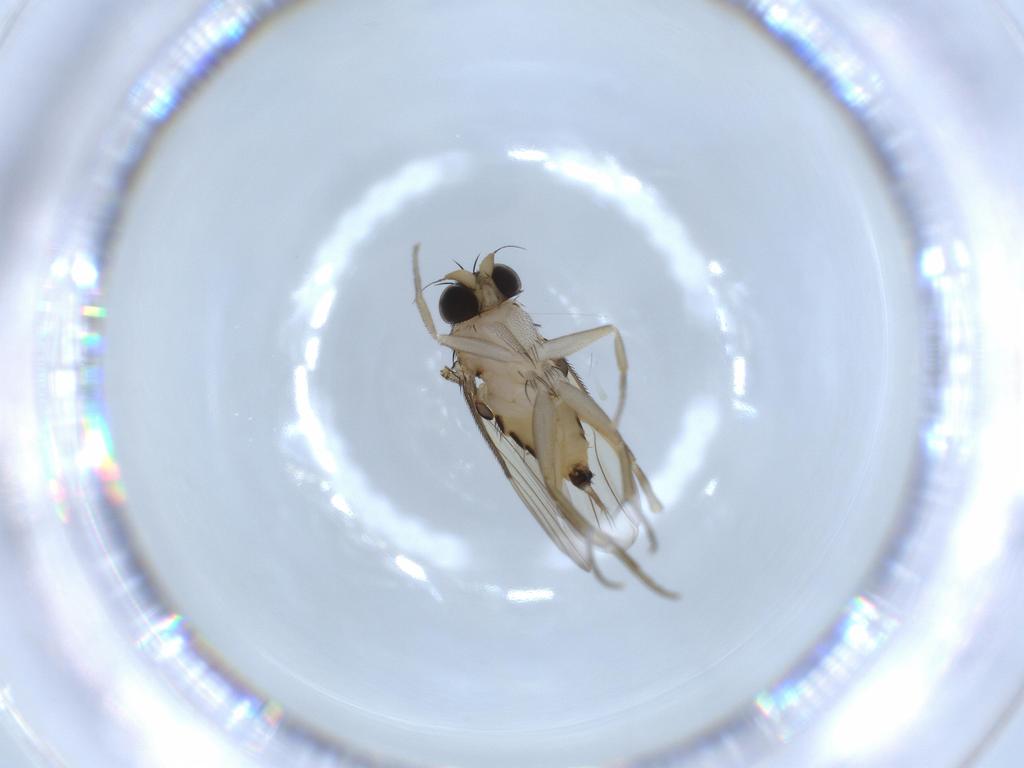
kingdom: Animalia
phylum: Arthropoda
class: Insecta
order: Diptera
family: Phoridae
